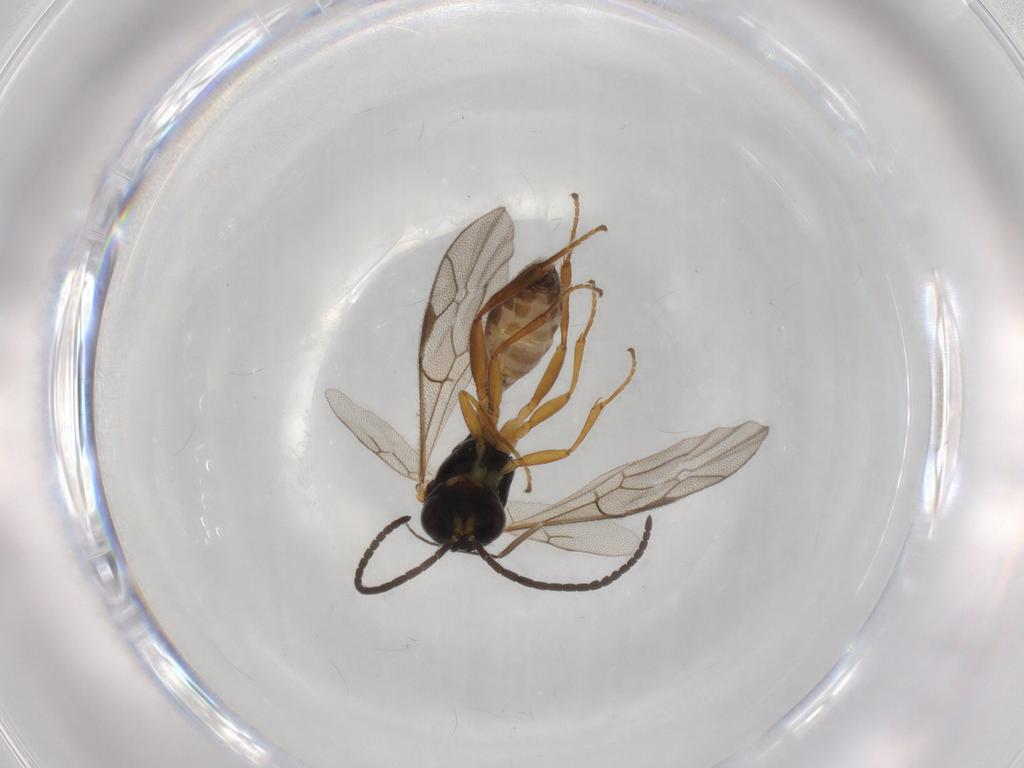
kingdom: Animalia
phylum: Arthropoda
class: Insecta
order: Hymenoptera
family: Ichneumonidae
